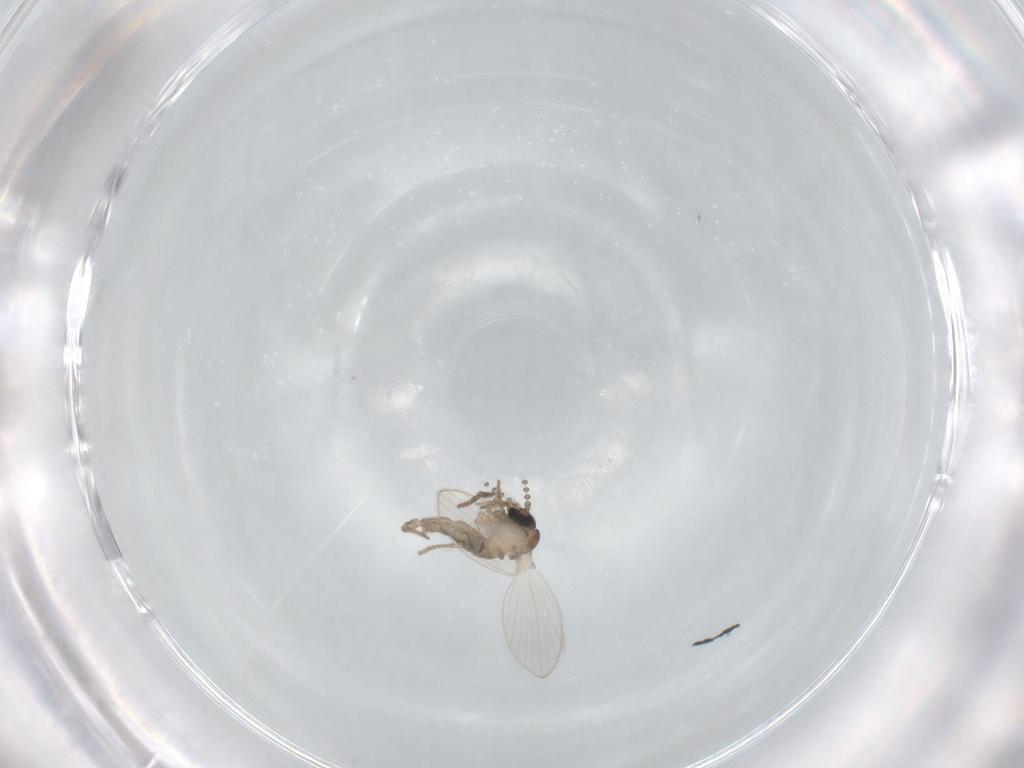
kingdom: Animalia
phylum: Arthropoda
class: Insecta
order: Diptera
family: Psychodidae
